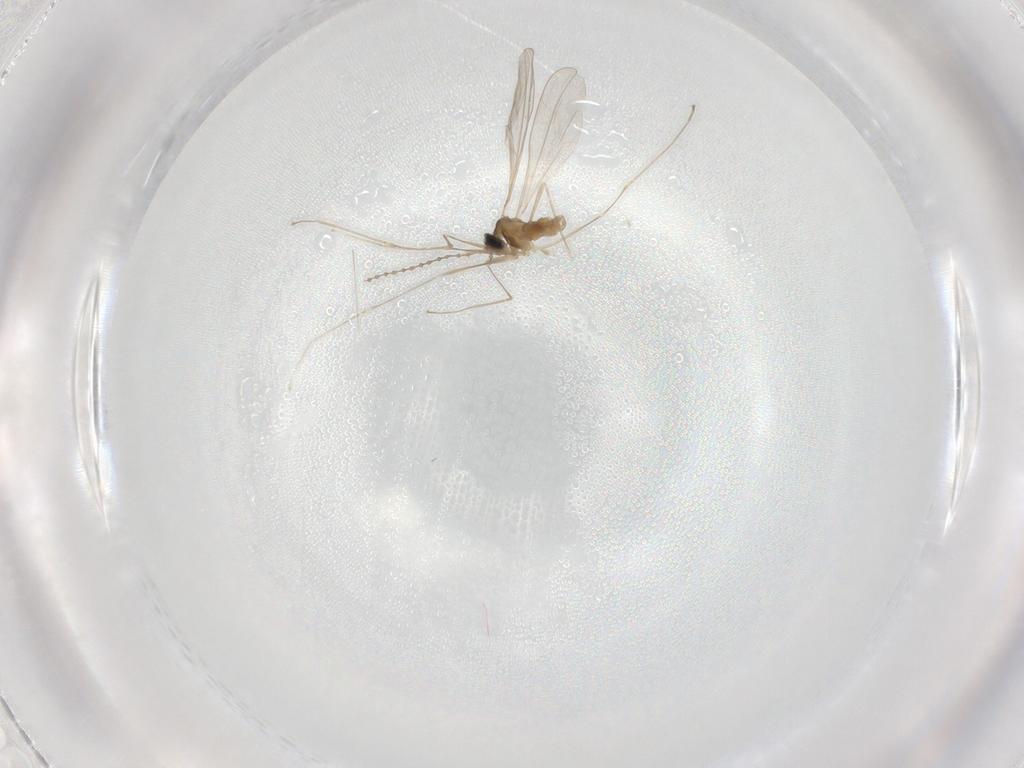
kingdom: Animalia
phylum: Arthropoda
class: Insecta
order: Diptera
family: Cecidomyiidae
